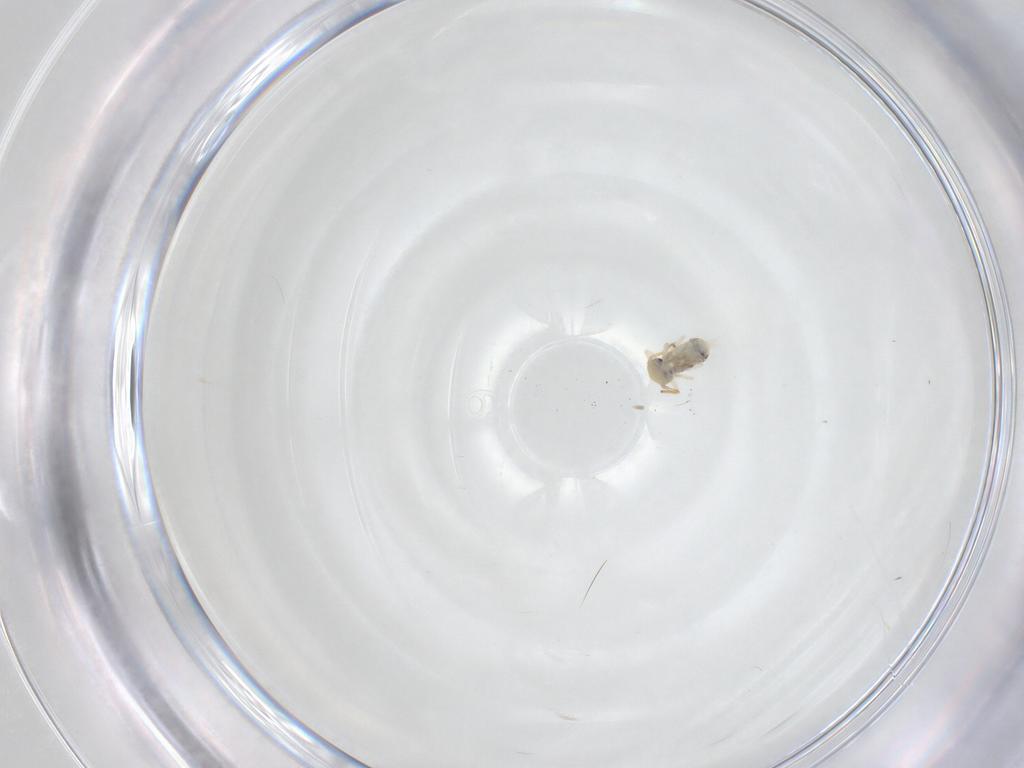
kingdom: Animalia
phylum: Arthropoda
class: Collembola
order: Symphypleona
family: Bourletiellidae
